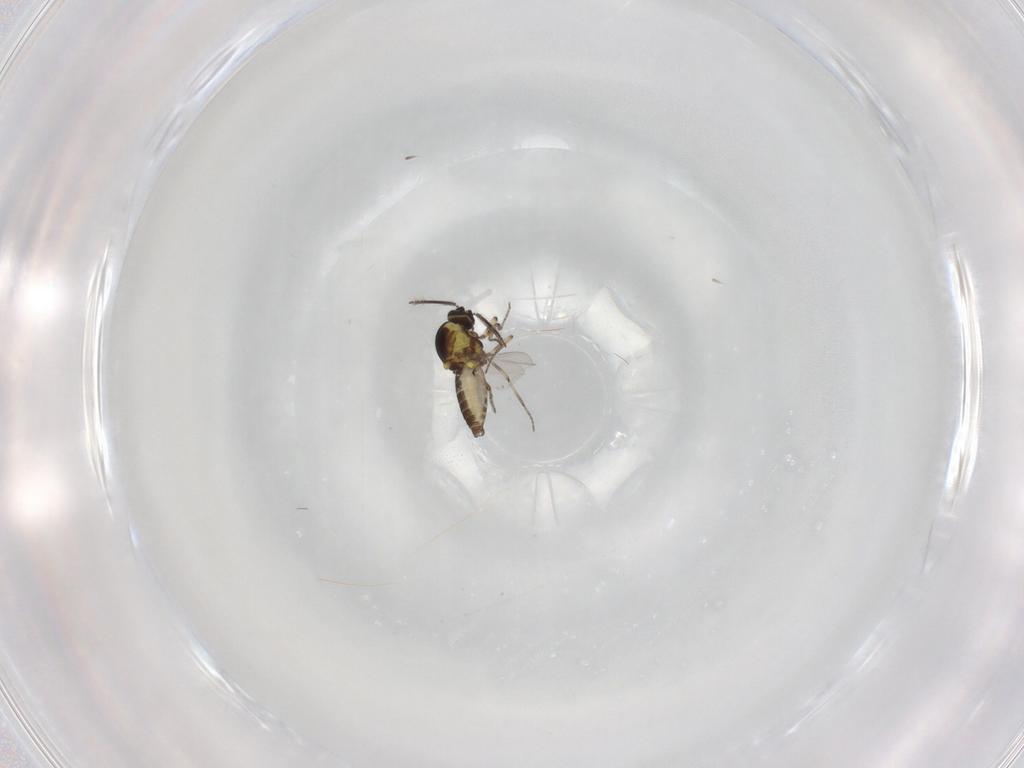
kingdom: Animalia
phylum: Arthropoda
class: Insecta
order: Diptera
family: Ceratopogonidae
